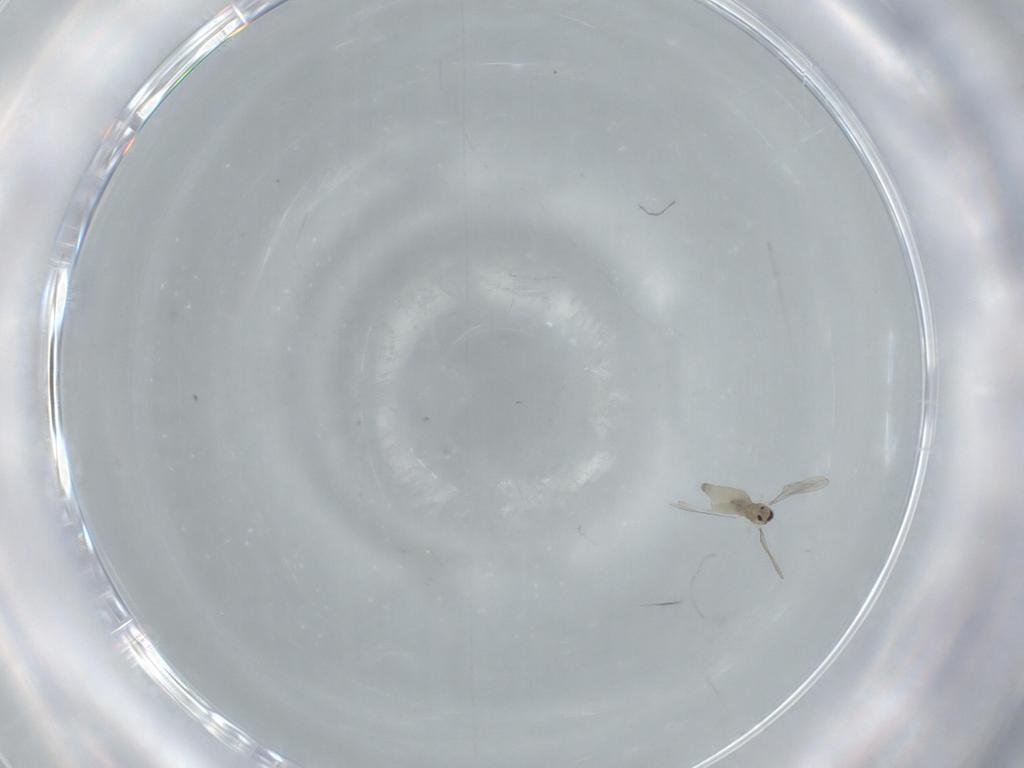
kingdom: Animalia
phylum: Arthropoda
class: Insecta
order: Diptera
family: Cecidomyiidae
